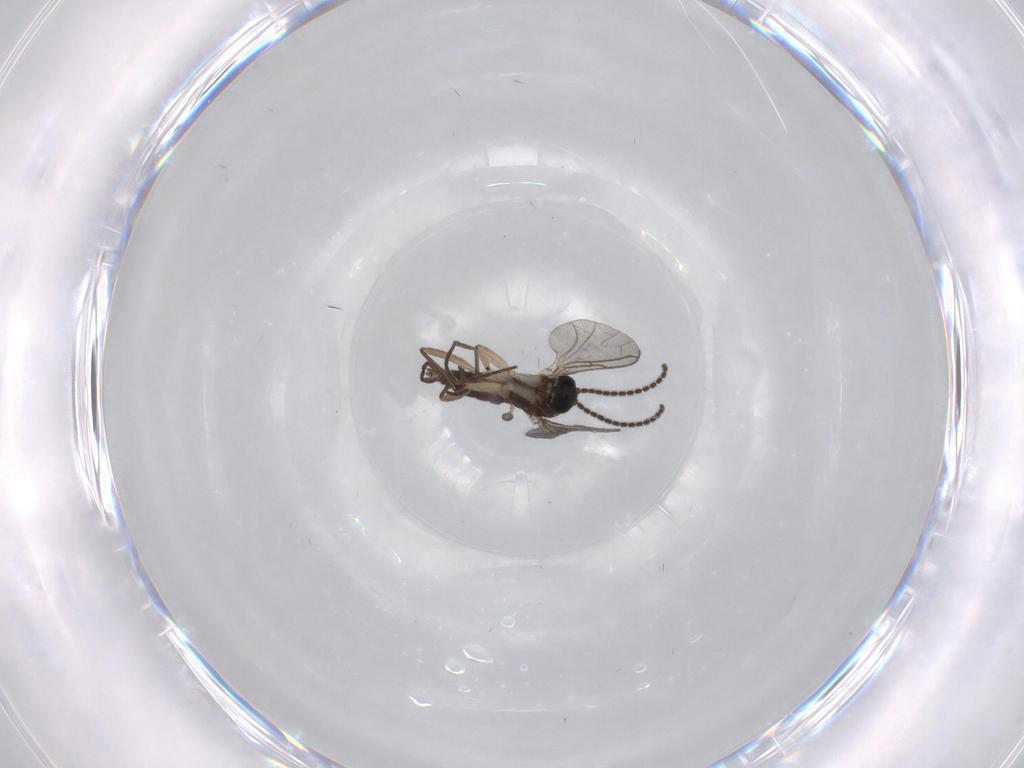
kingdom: Animalia
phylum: Arthropoda
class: Insecta
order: Diptera
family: Sciaridae
